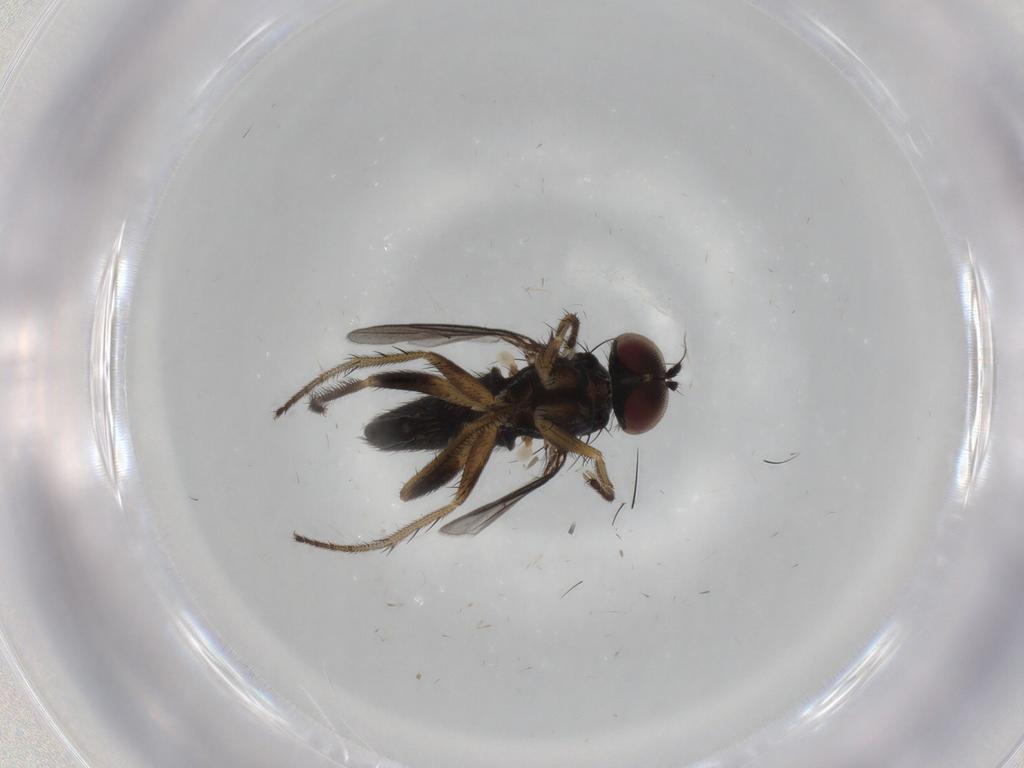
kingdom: Animalia
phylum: Arthropoda
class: Insecta
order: Diptera
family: Dolichopodidae
